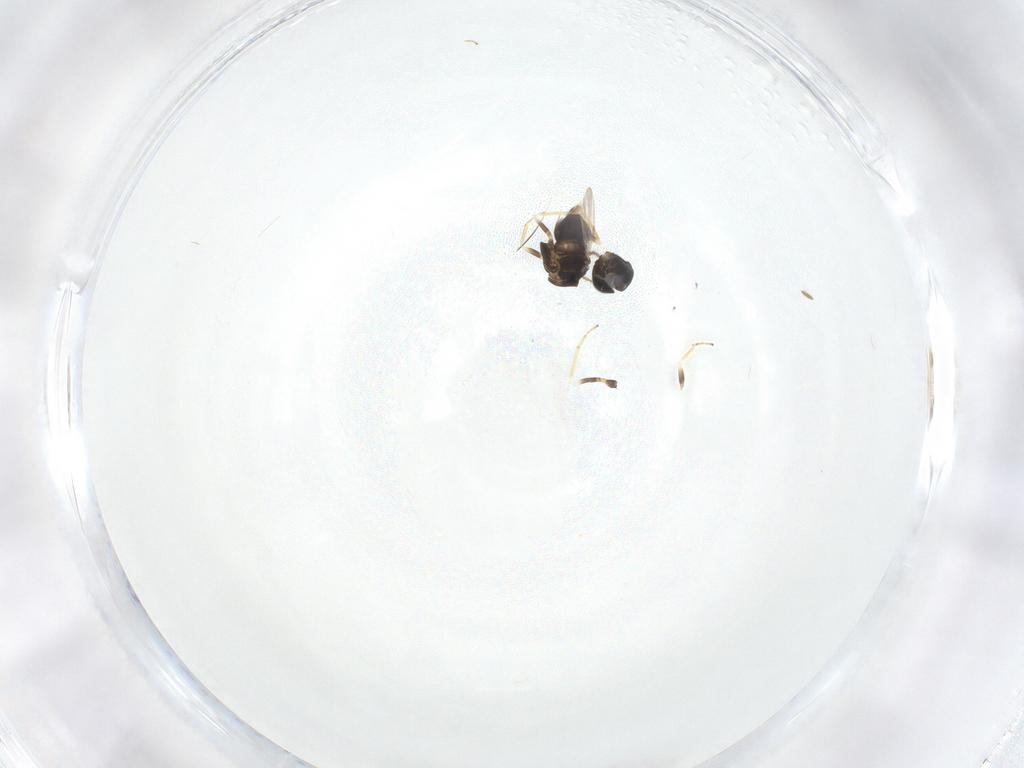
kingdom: Animalia
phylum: Arthropoda
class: Insecta
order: Hymenoptera
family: Encyrtidae
